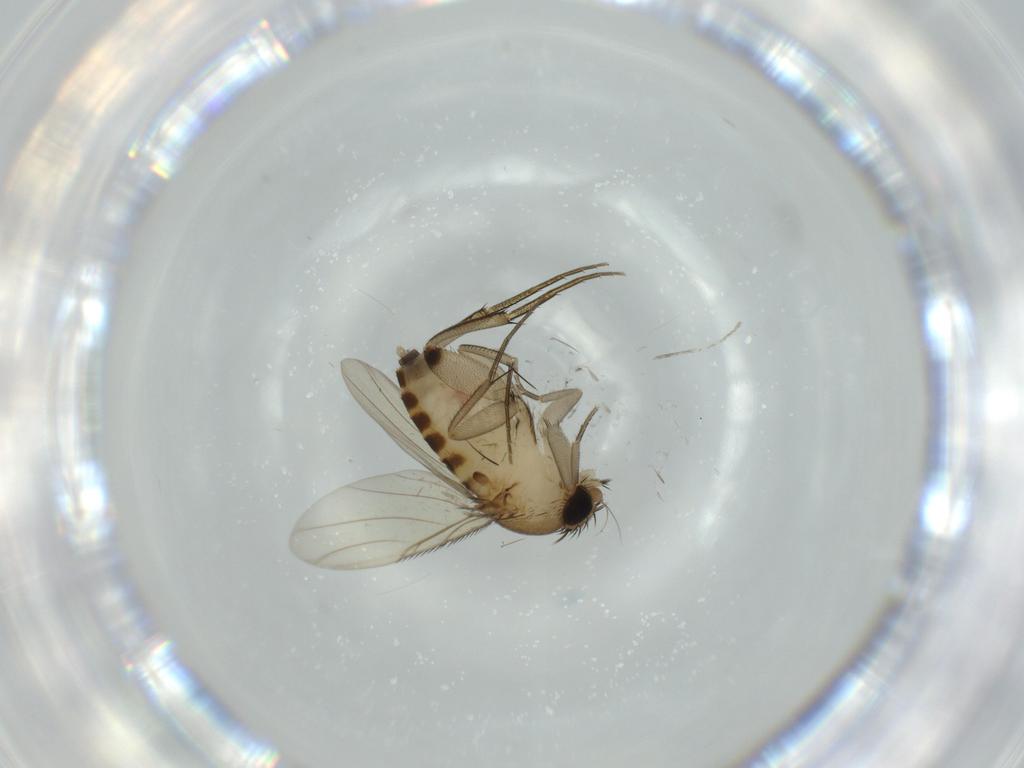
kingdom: Animalia
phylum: Arthropoda
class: Insecta
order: Diptera
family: Phoridae
